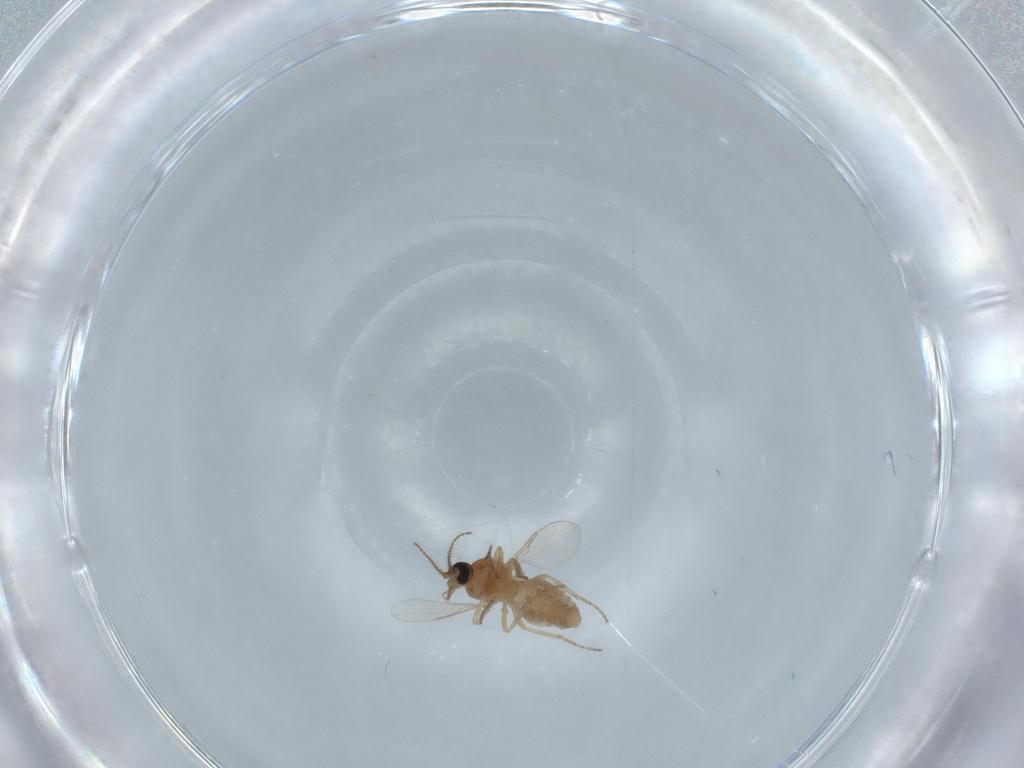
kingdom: Animalia
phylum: Arthropoda
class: Insecta
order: Diptera
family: Ceratopogonidae
